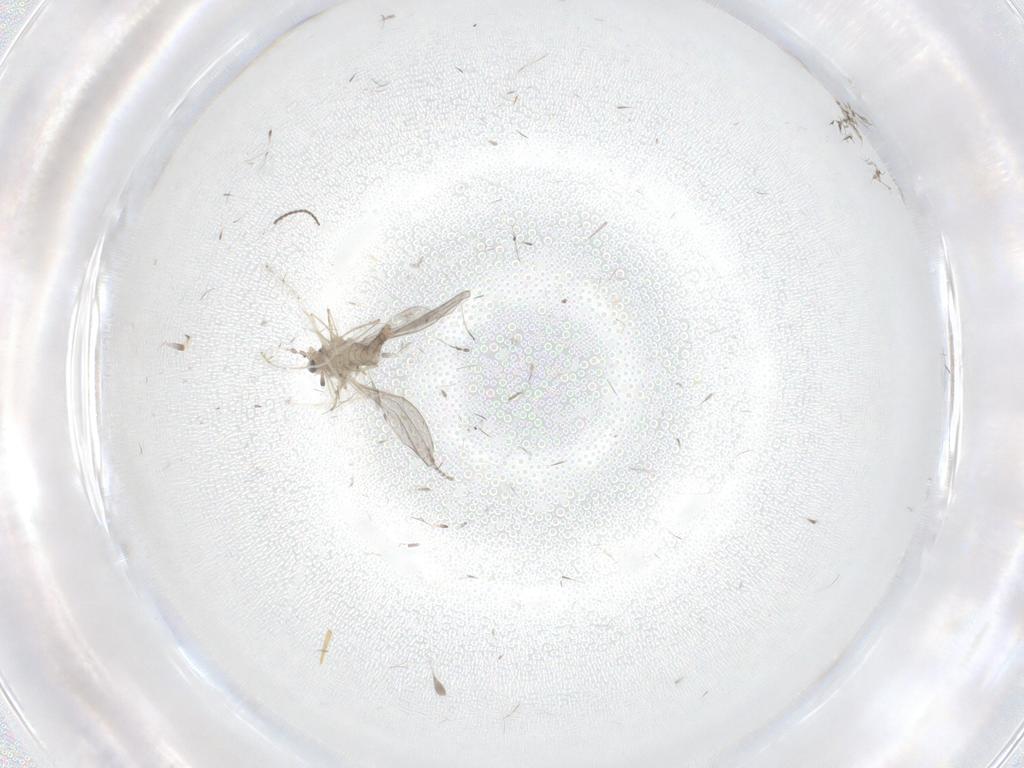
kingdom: Animalia
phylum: Arthropoda
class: Insecta
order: Diptera
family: Cecidomyiidae
